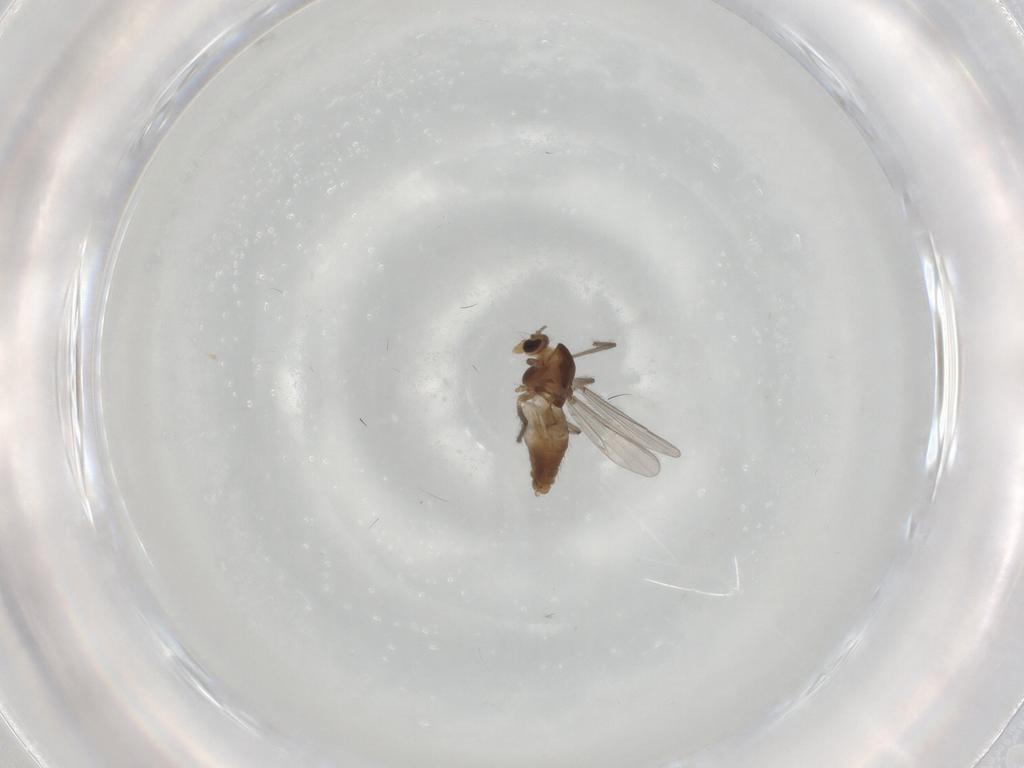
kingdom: Animalia
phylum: Arthropoda
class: Insecta
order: Diptera
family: Chironomidae
